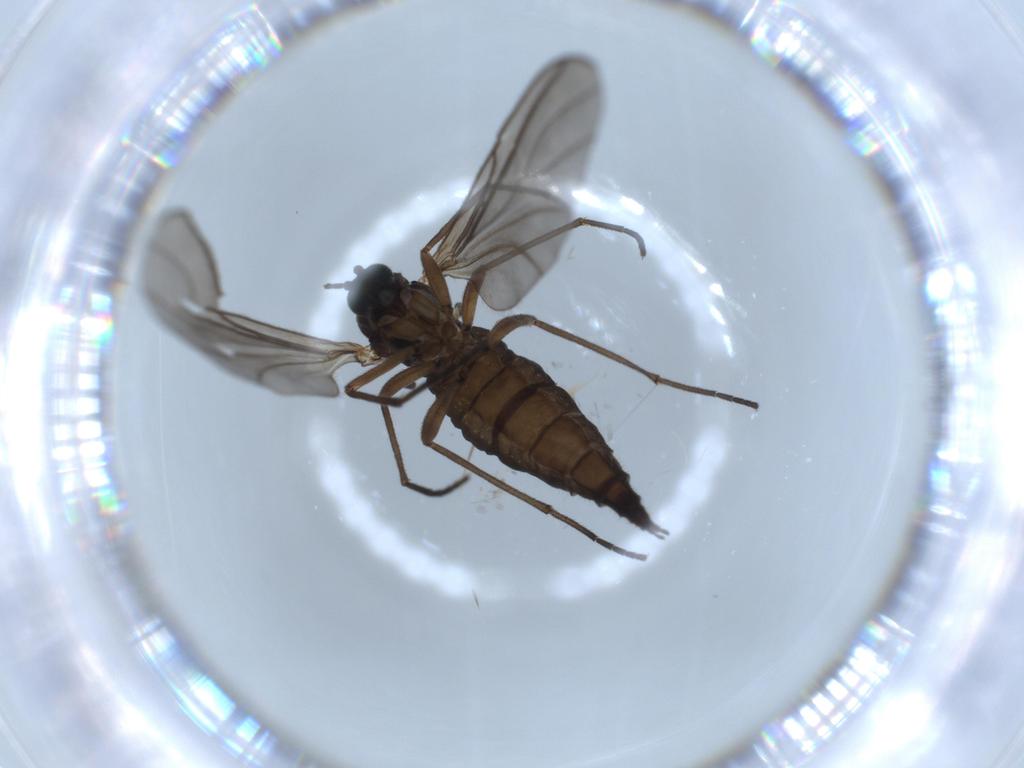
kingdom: Animalia
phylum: Arthropoda
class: Insecta
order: Diptera
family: Sciaridae
